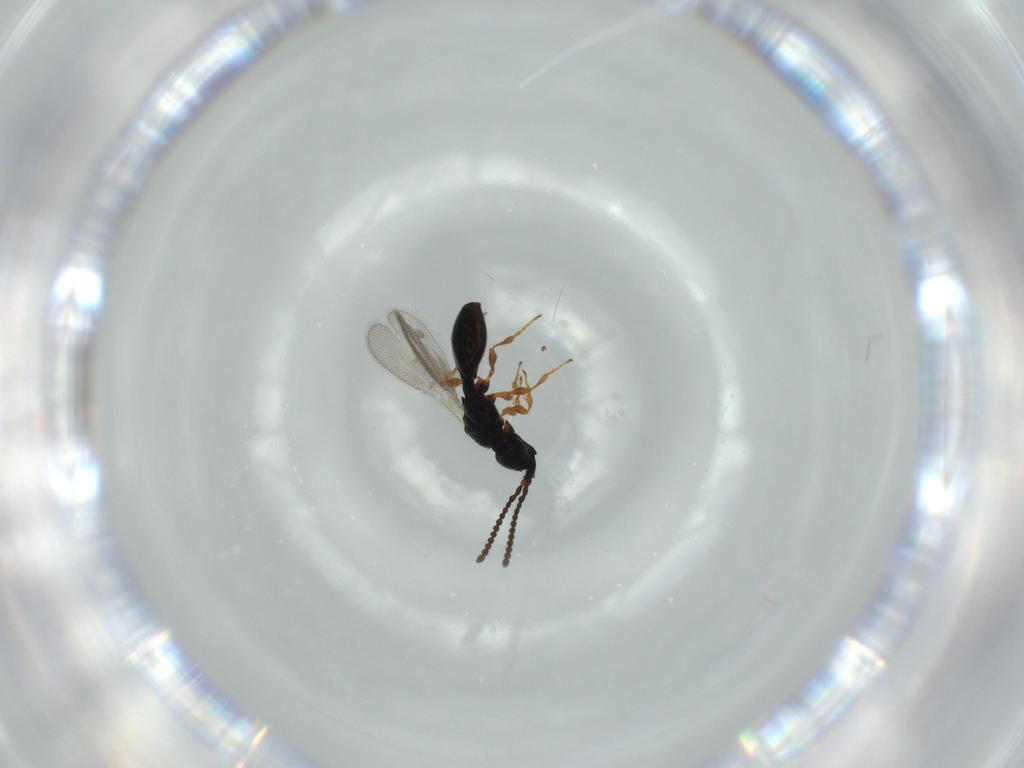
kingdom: Animalia
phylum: Arthropoda
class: Insecta
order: Hymenoptera
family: Diapriidae
